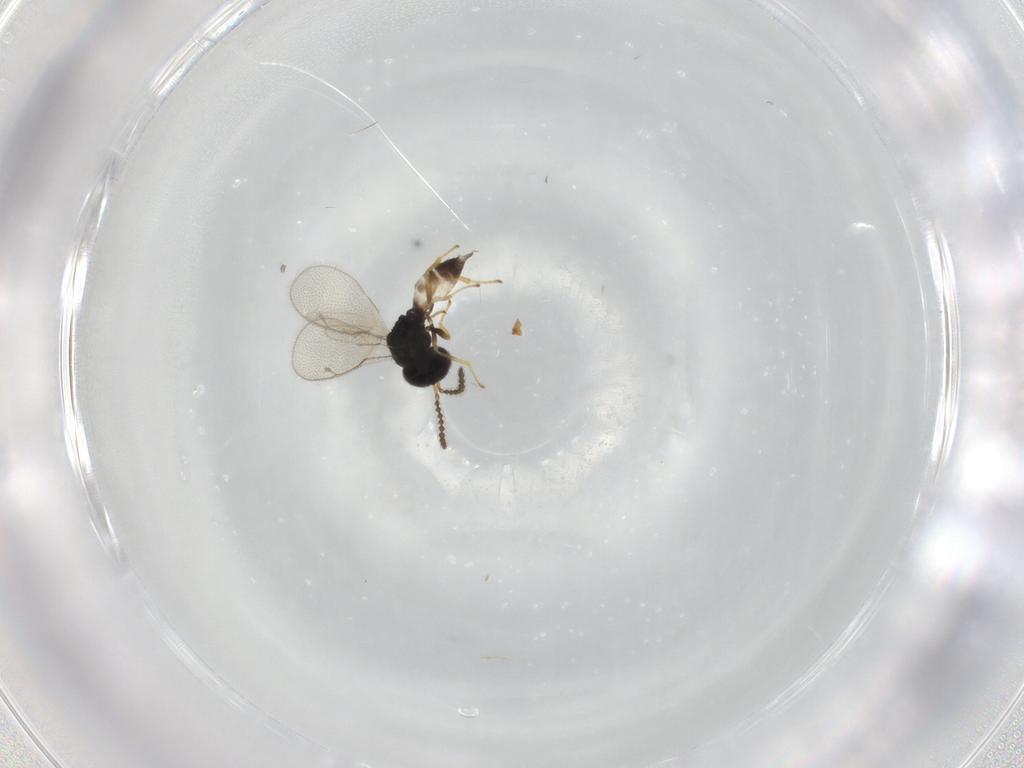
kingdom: Animalia
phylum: Arthropoda
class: Insecta
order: Hymenoptera
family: Pteromalidae
